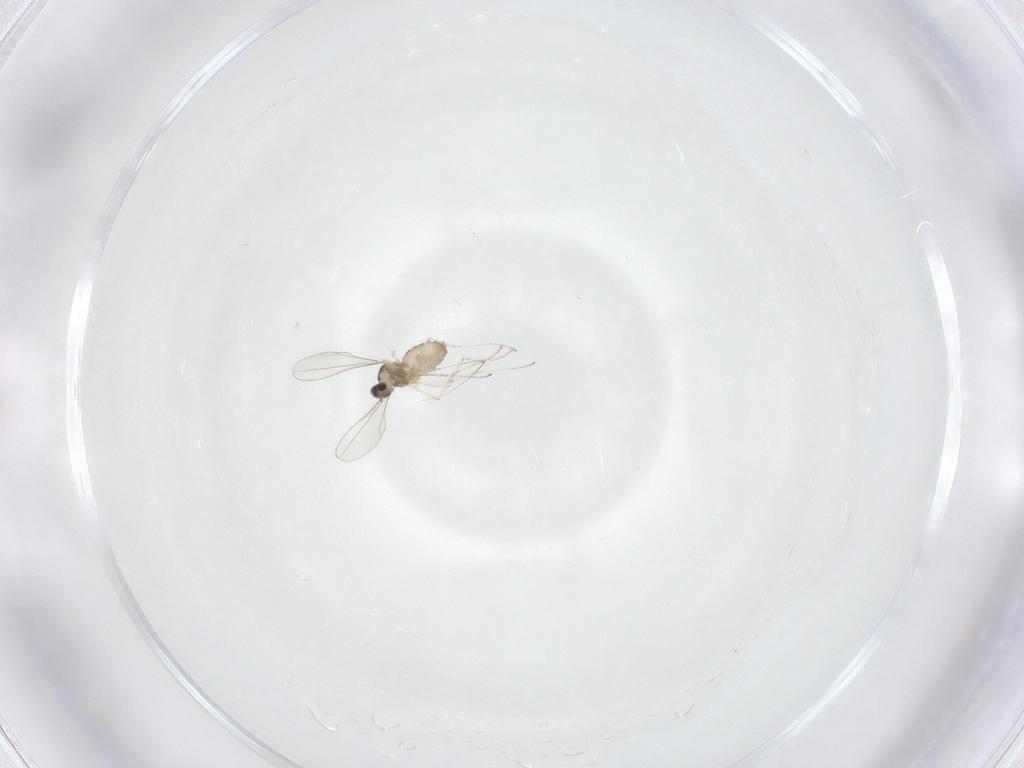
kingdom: Animalia
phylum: Arthropoda
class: Insecta
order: Diptera
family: Cecidomyiidae
